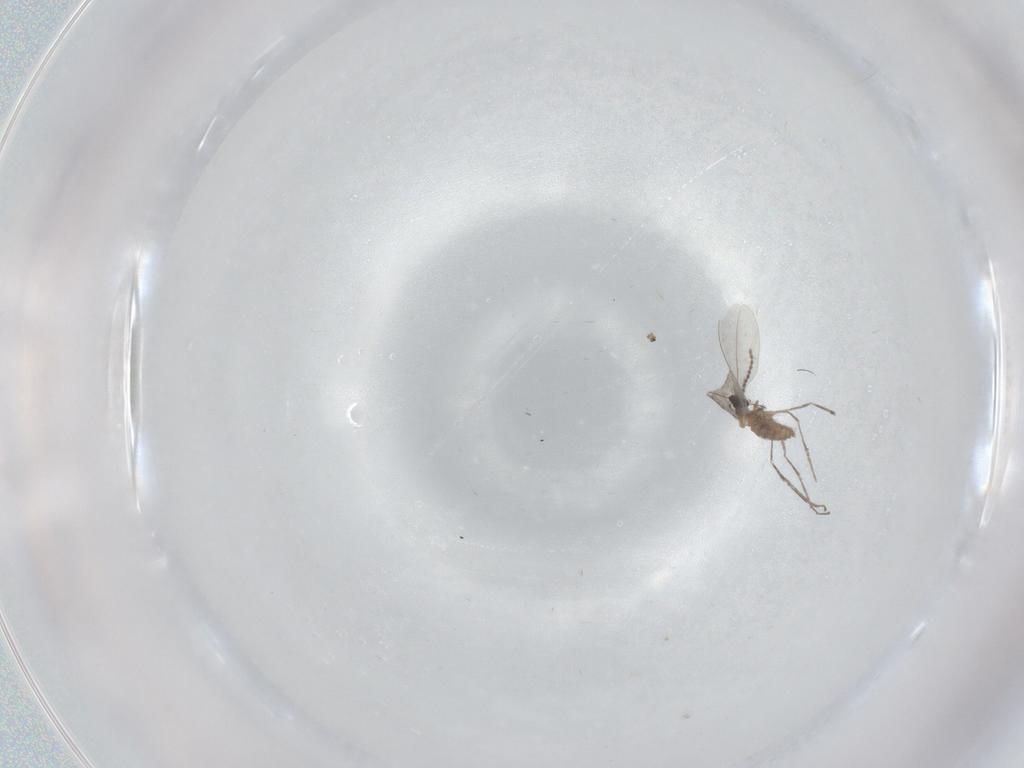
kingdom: Animalia
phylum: Arthropoda
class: Insecta
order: Diptera
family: Cecidomyiidae
